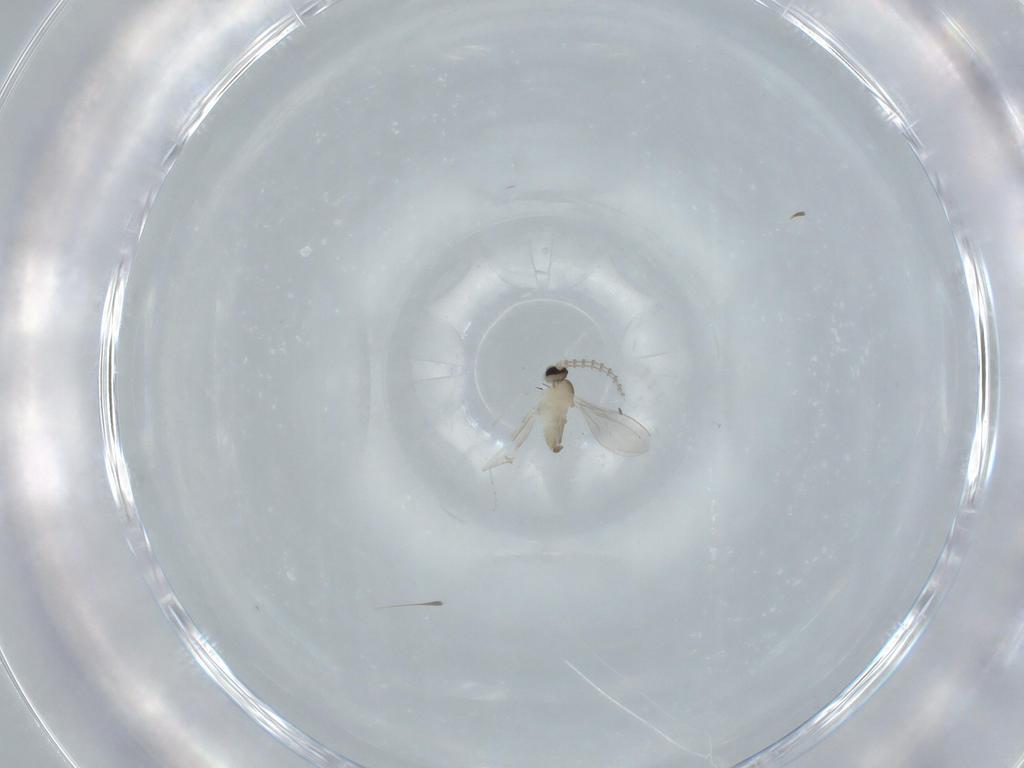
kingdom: Animalia
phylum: Arthropoda
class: Insecta
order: Diptera
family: Cecidomyiidae
